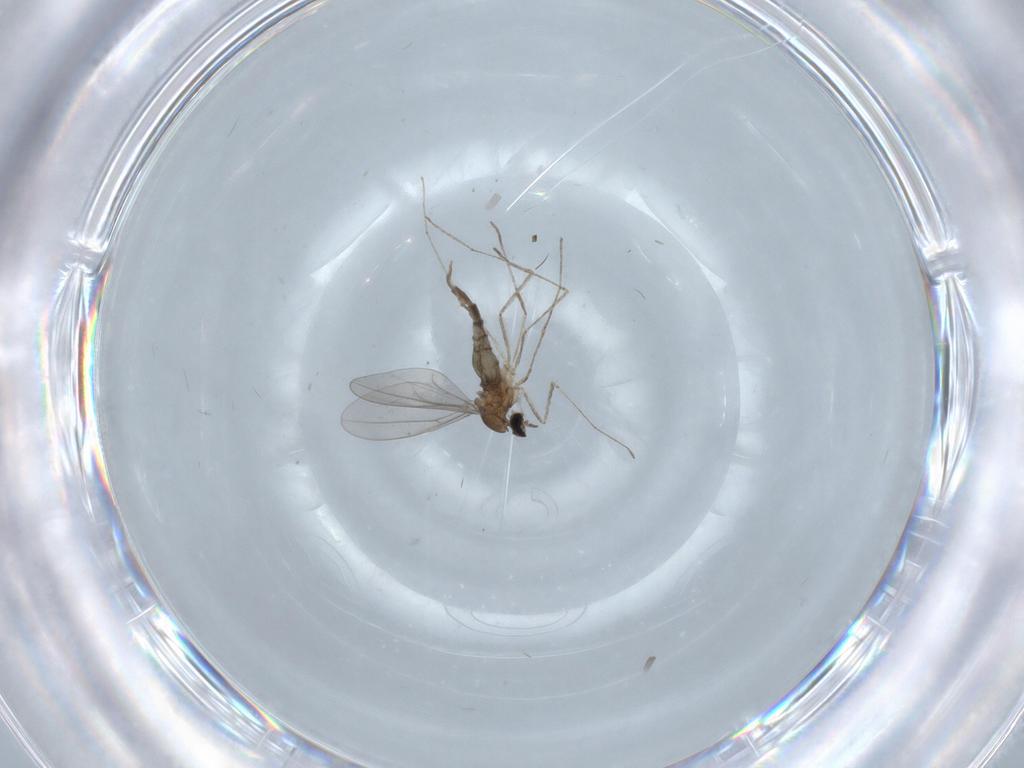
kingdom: Animalia
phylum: Arthropoda
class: Insecta
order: Diptera
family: Cecidomyiidae
